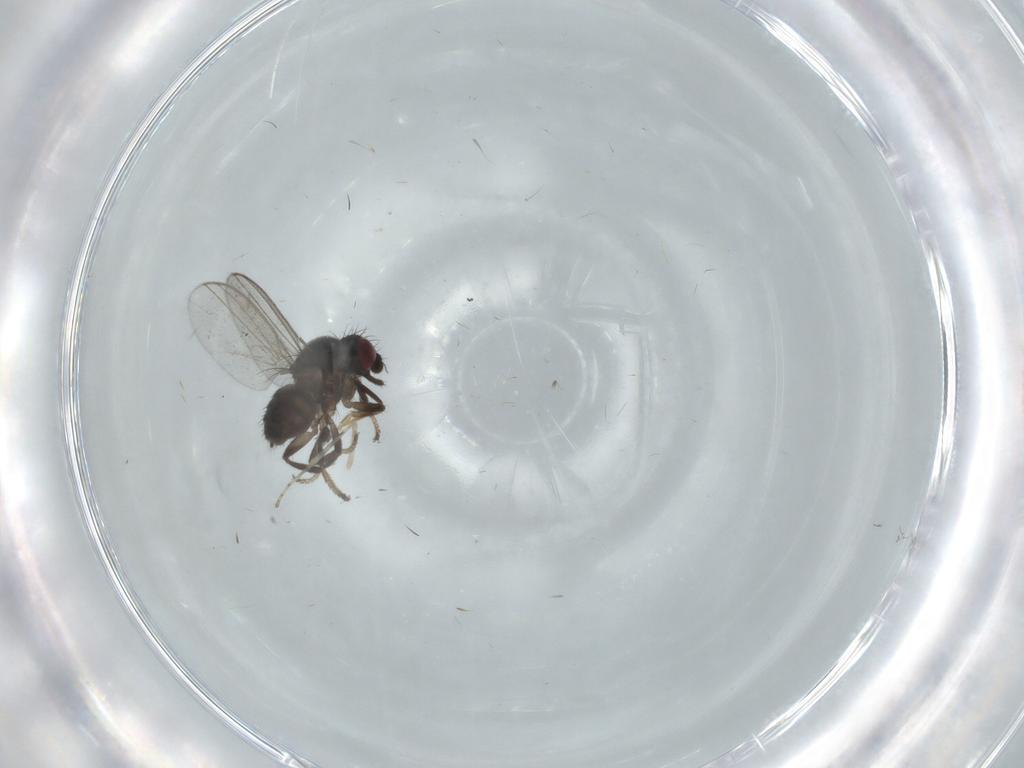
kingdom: Animalia
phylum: Arthropoda
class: Insecta
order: Diptera
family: Milichiidae
